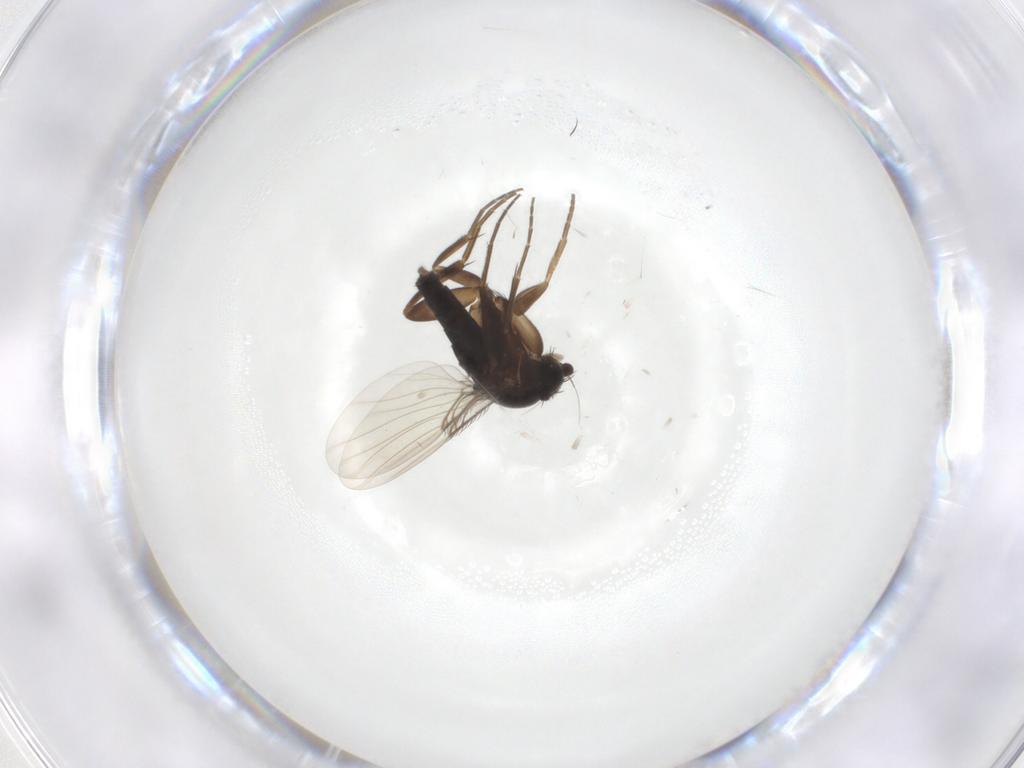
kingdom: Animalia
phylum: Arthropoda
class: Insecta
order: Diptera
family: Phoridae
